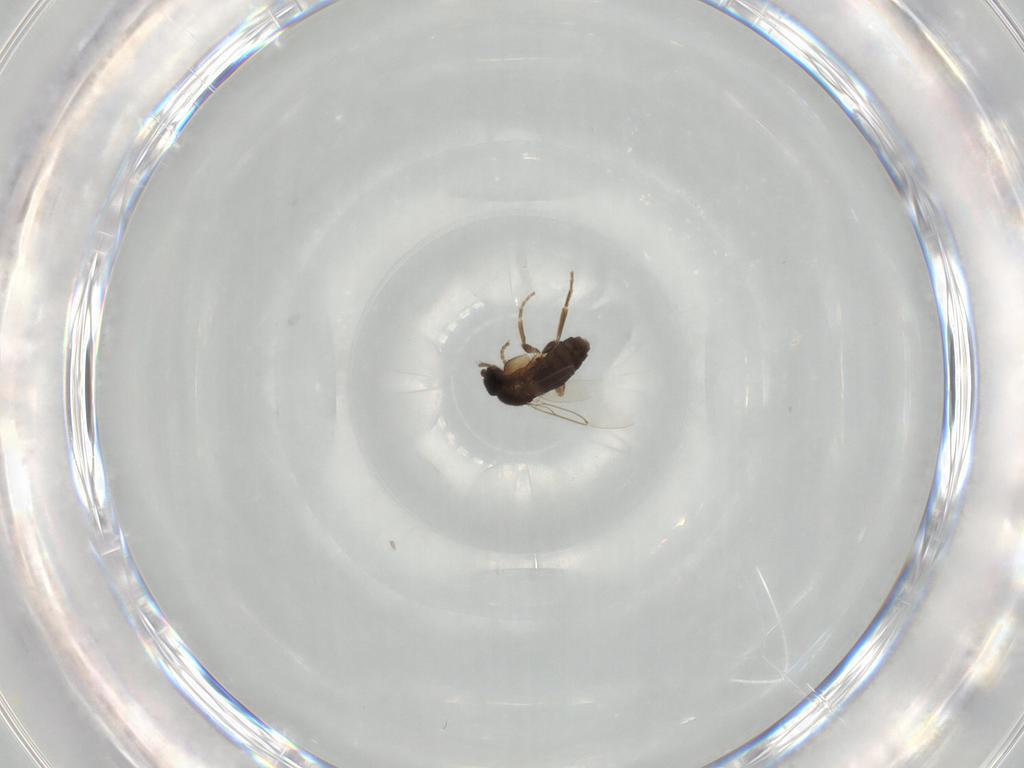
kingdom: Animalia
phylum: Arthropoda
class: Insecta
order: Diptera
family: Phoridae
